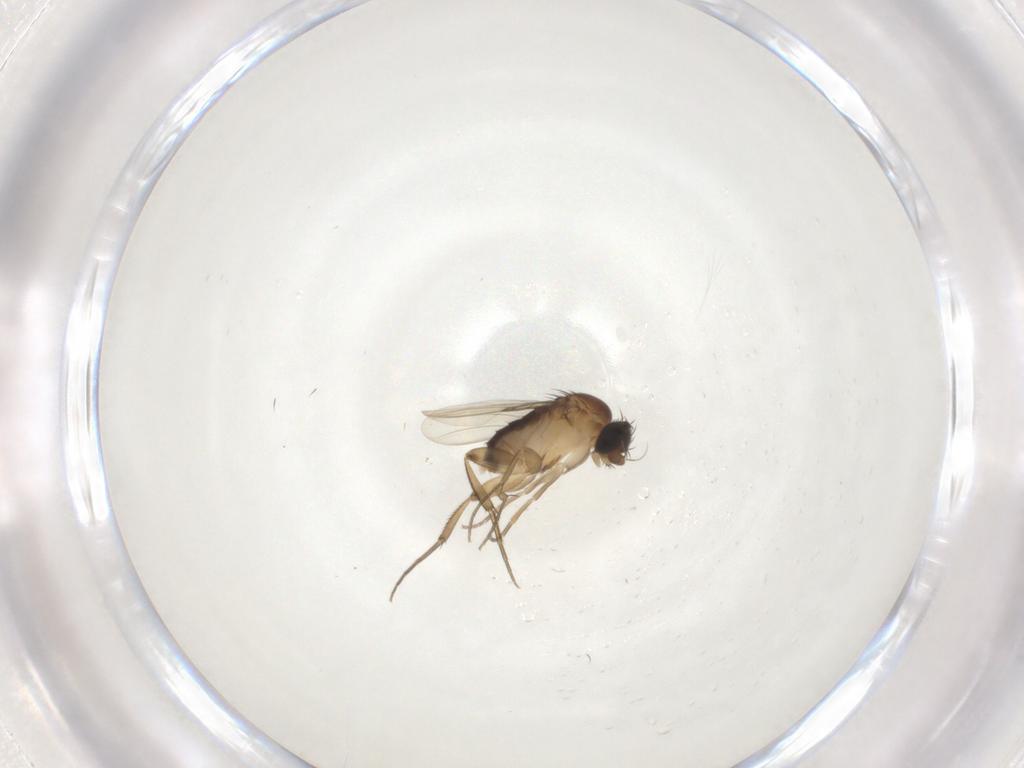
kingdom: Animalia
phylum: Arthropoda
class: Insecta
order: Diptera
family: Phoridae
